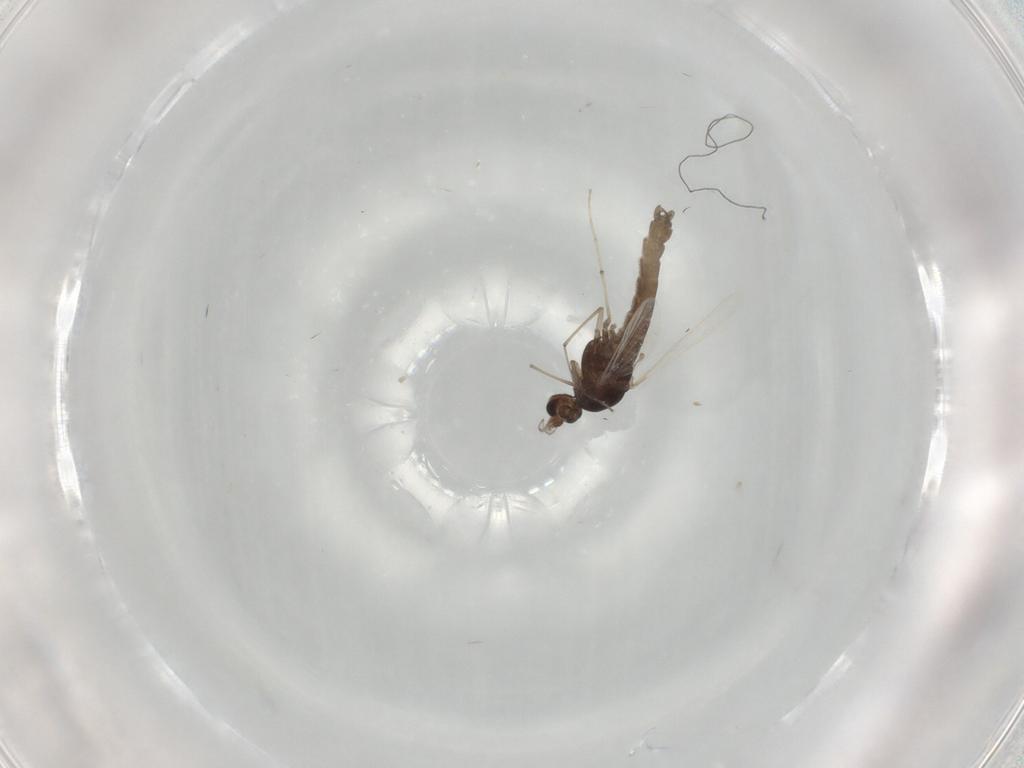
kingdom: Animalia
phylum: Arthropoda
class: Insecta
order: Diptera
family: Chironomidae
